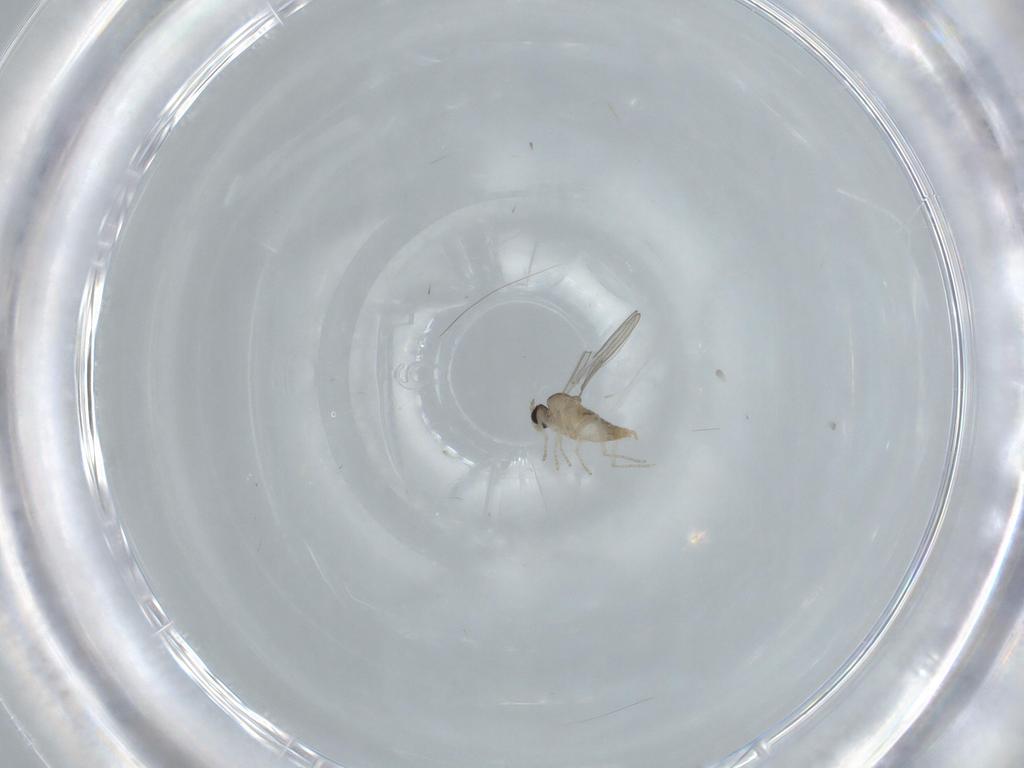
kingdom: Animalia
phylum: Arthropoda
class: Insecta
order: Diptera
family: Cecidomyiidae
